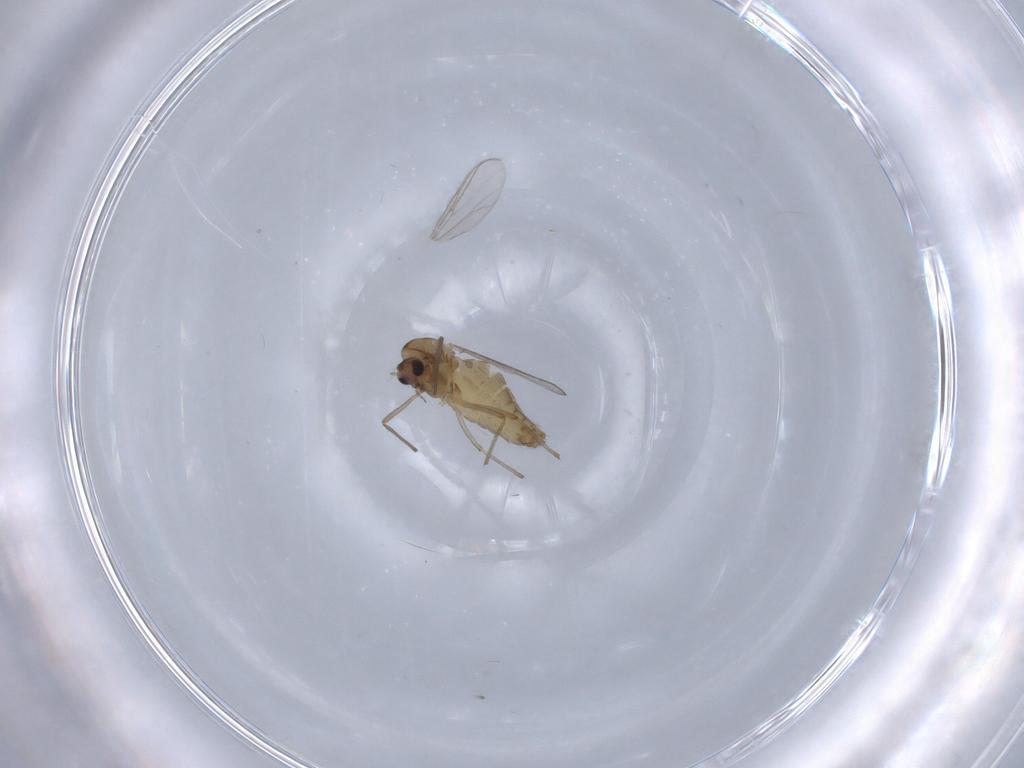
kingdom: Animalia
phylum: Arthropoda
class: Insecta
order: Diptera
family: Chironomidae
